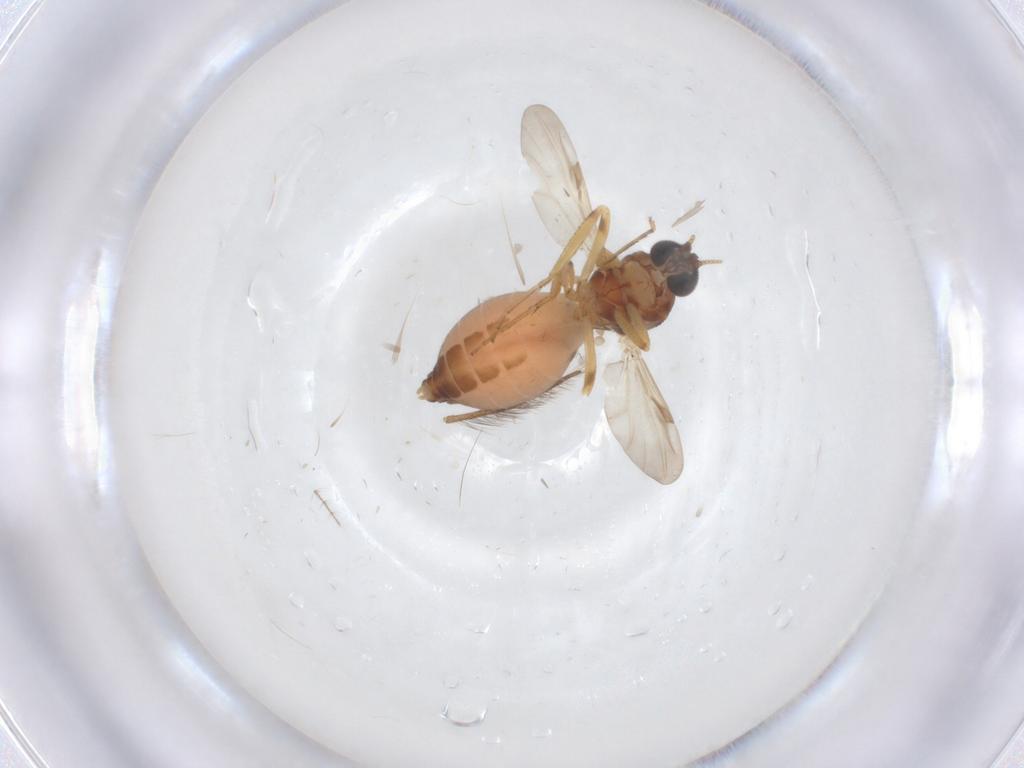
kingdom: Animalia
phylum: Arthropoda
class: Insecta
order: Diptera
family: Ceratopogonidae
